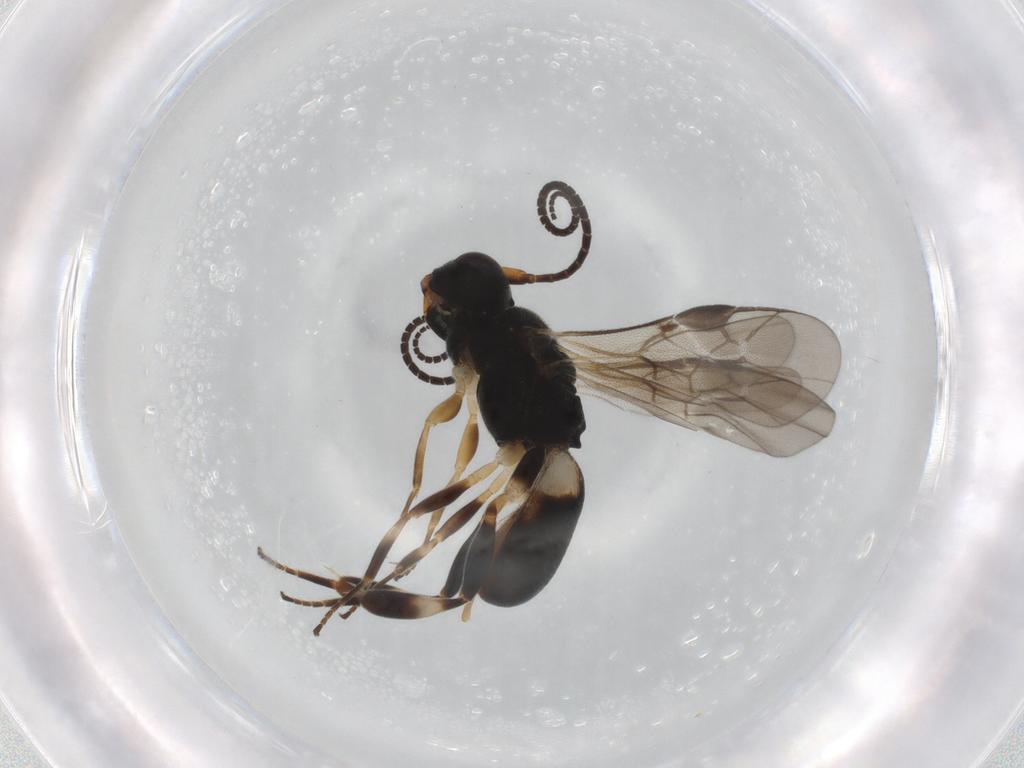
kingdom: Animalia
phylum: Arthropoda
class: Insecta
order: Hymenoptera
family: Braconidae
